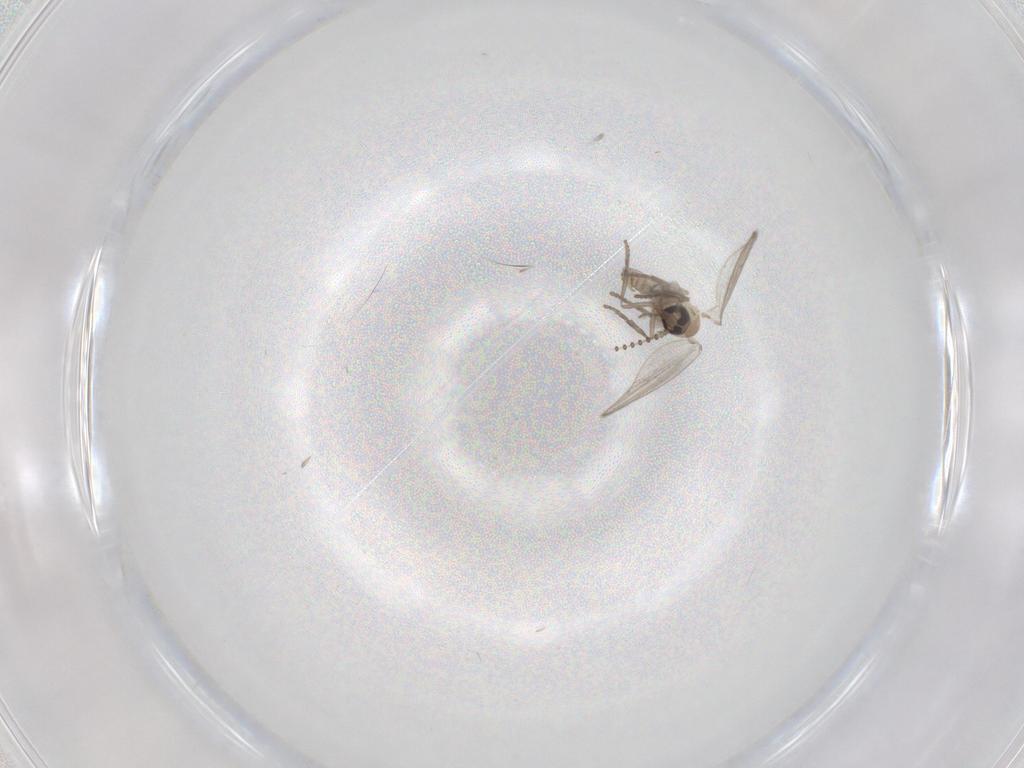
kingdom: Animalia
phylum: Arthropoda
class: Insecta
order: Diptera
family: Psychodidae
